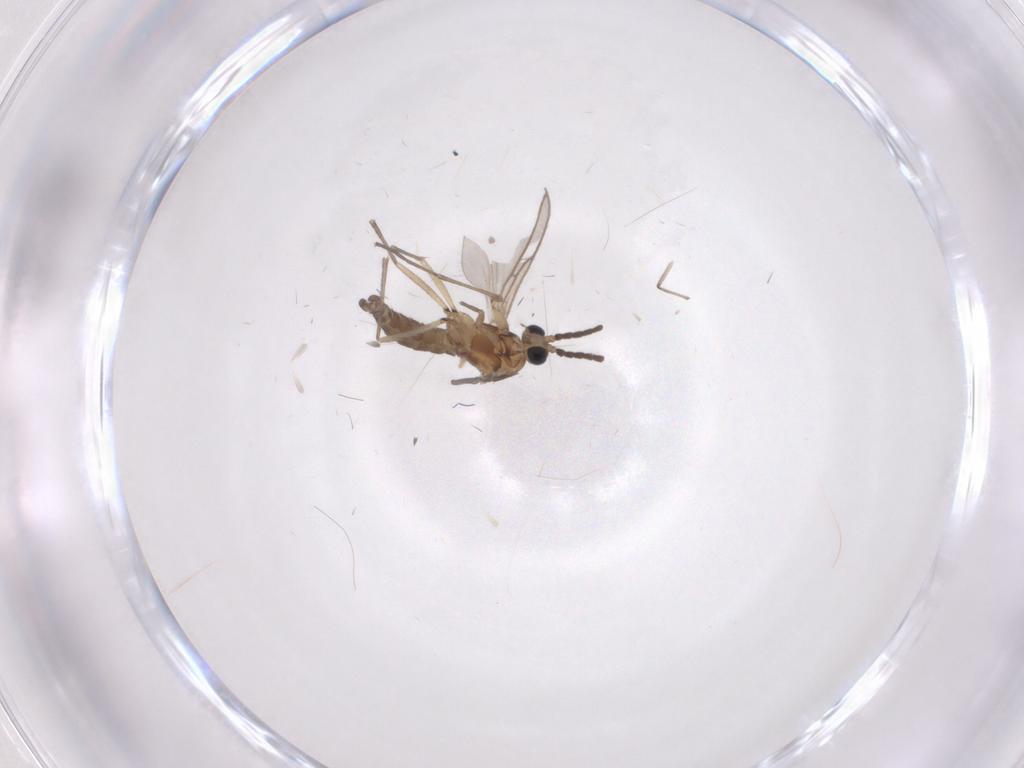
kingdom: Animalia
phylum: Arthropoda
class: Insecta
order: Diptera
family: Sciaridae
